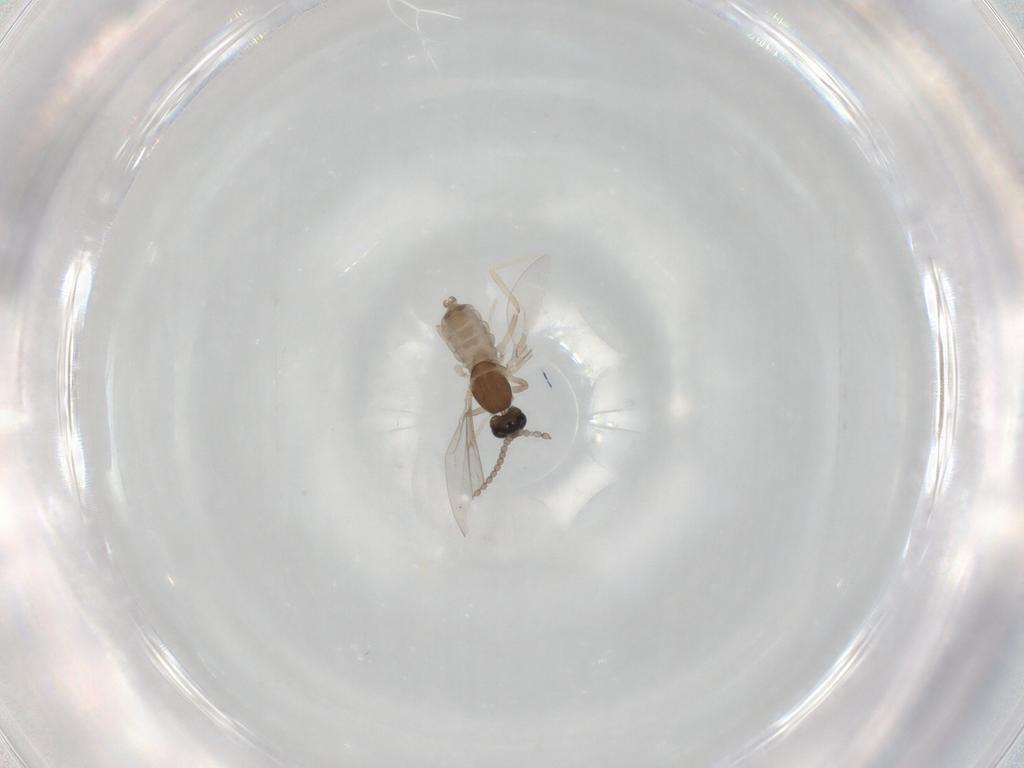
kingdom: Animalia
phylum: Arthropoda
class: Insecta
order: Diptera
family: Cecidomyiidae
